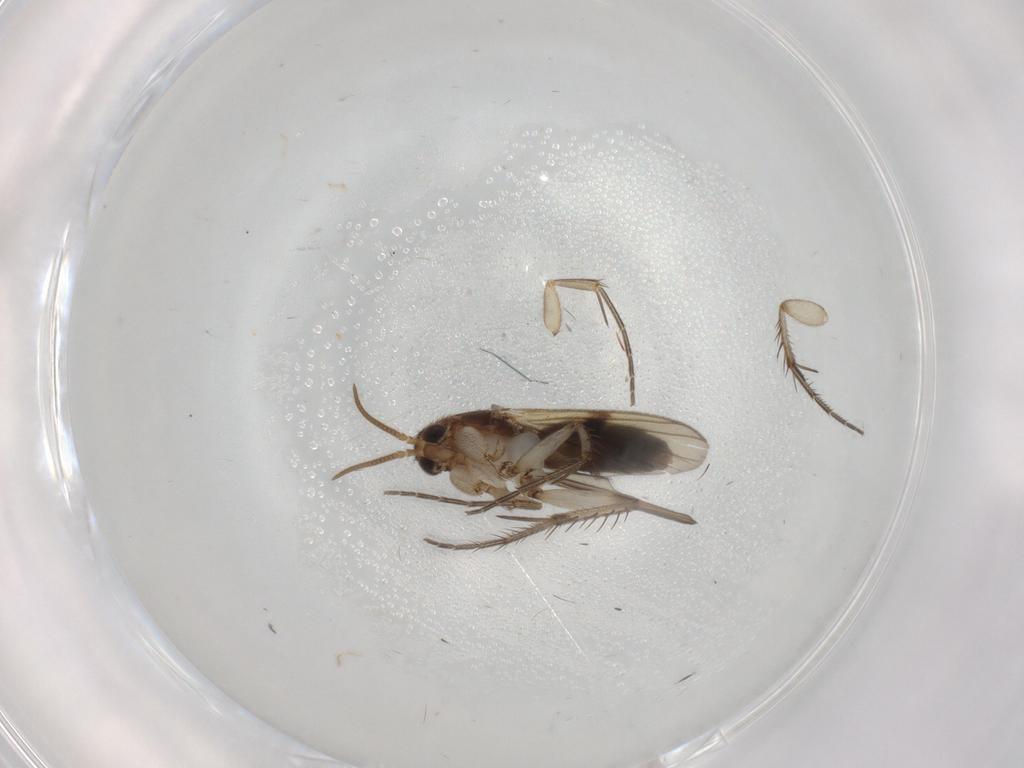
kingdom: Animalia
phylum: Arthropoda
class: Insecta
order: Diptera
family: Mycetophilidae
